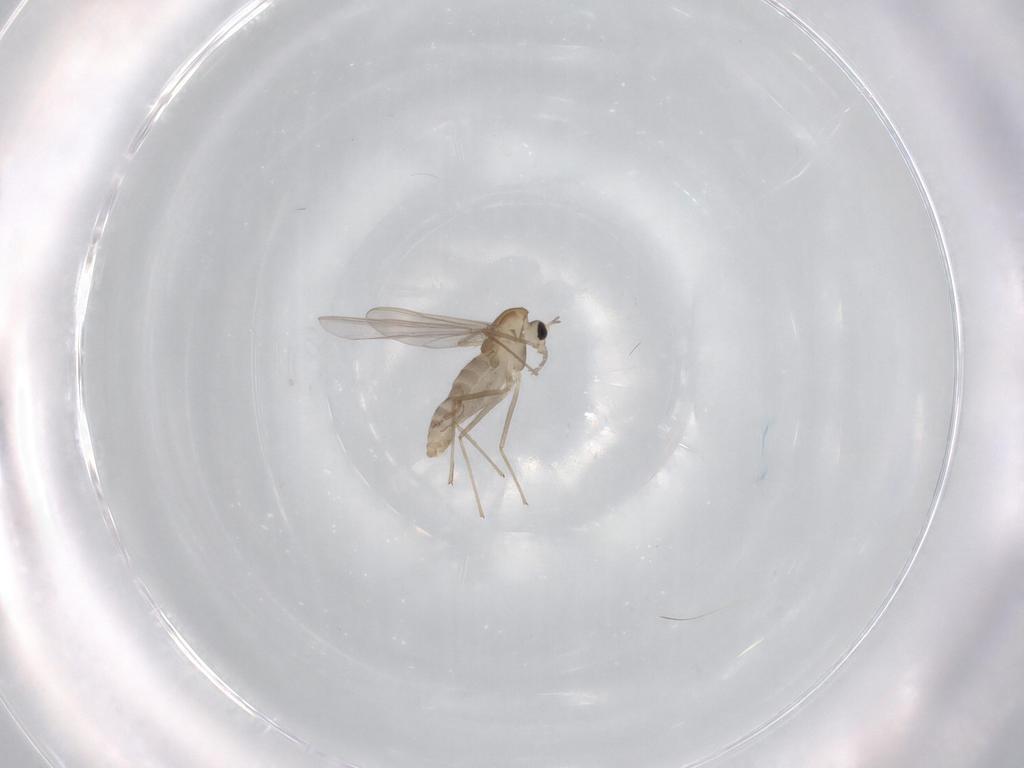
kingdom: Animalia
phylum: Arthropoda
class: Insecta
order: Diptera
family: Chironomidae
